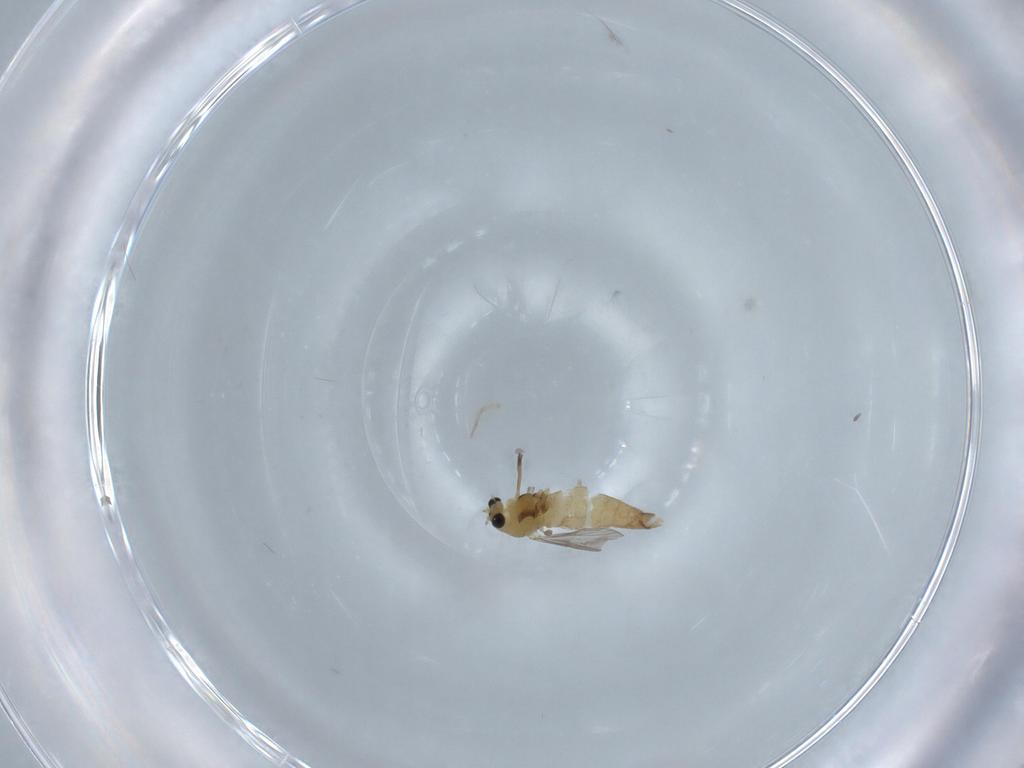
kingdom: Animalia
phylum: Arthropoda
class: Insecta
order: Diptera
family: Chironomidae
